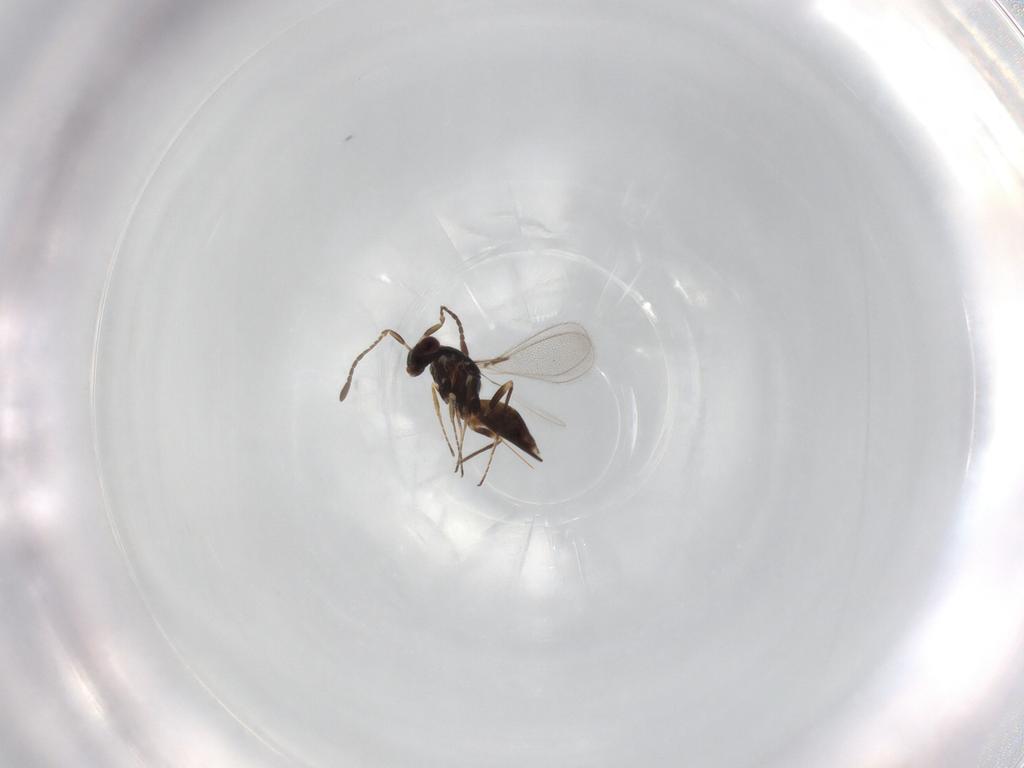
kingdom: Animalia
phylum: Arthropoda
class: Insecta
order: Hymenoptera
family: Mymaridae
